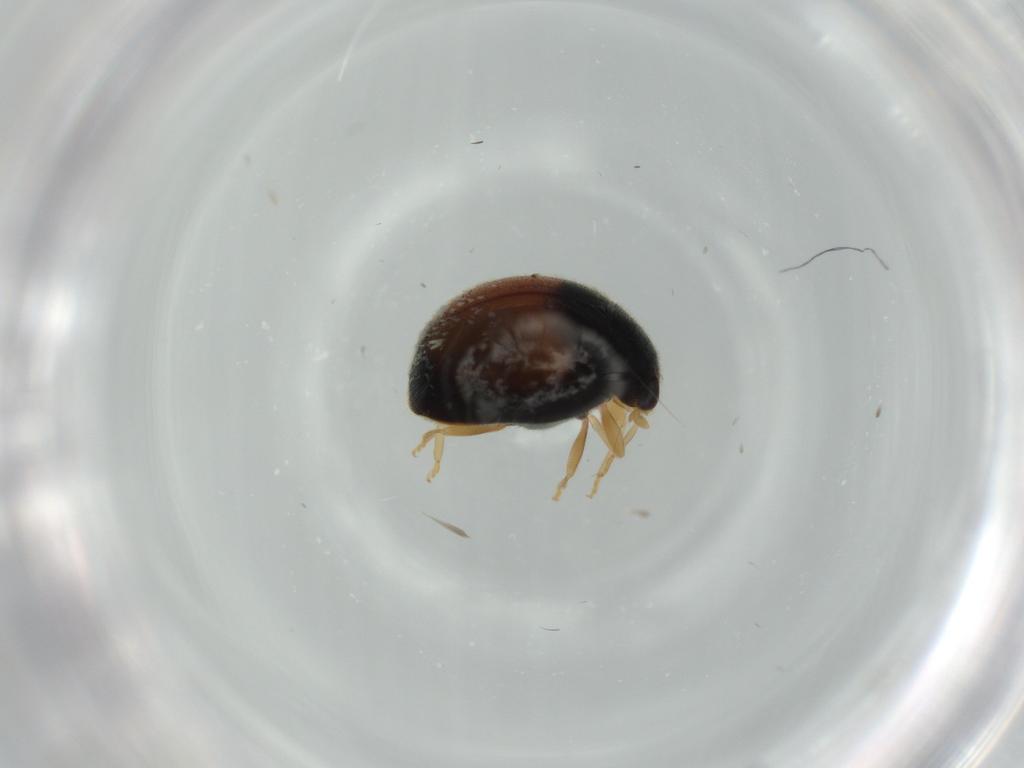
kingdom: Animalia
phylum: Arthropoda
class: Insecta
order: Coleoptera
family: Coccinellidae
